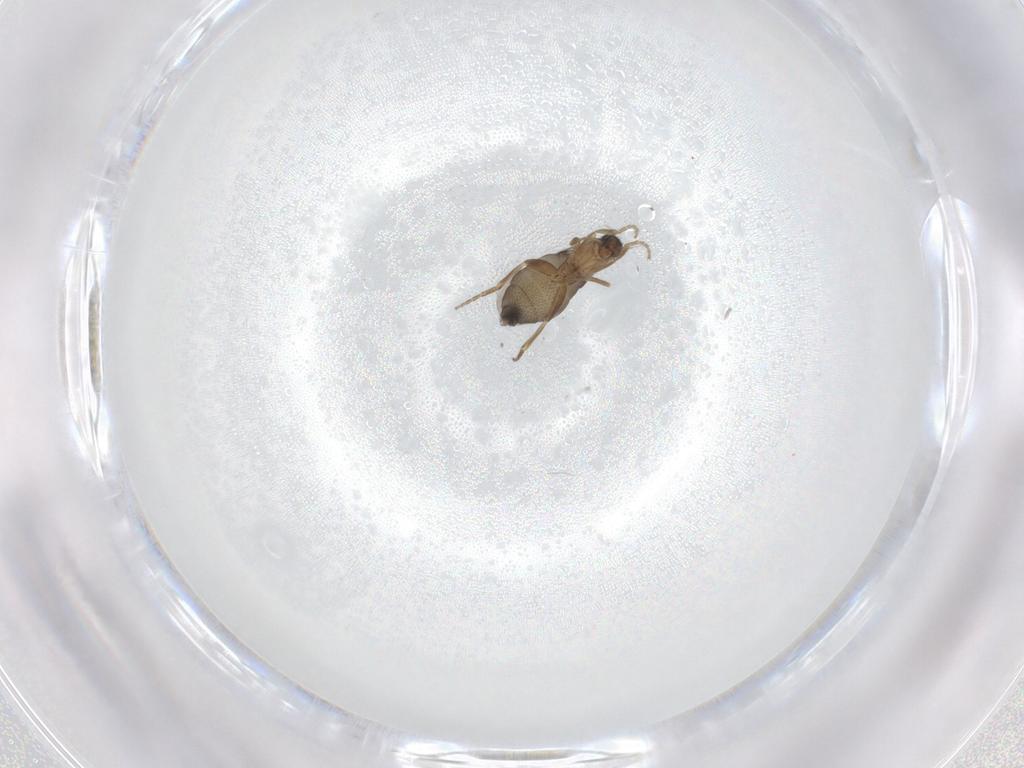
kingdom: Animalia
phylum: Arthropoda
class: Insecta
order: Diptera
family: Phoridae
